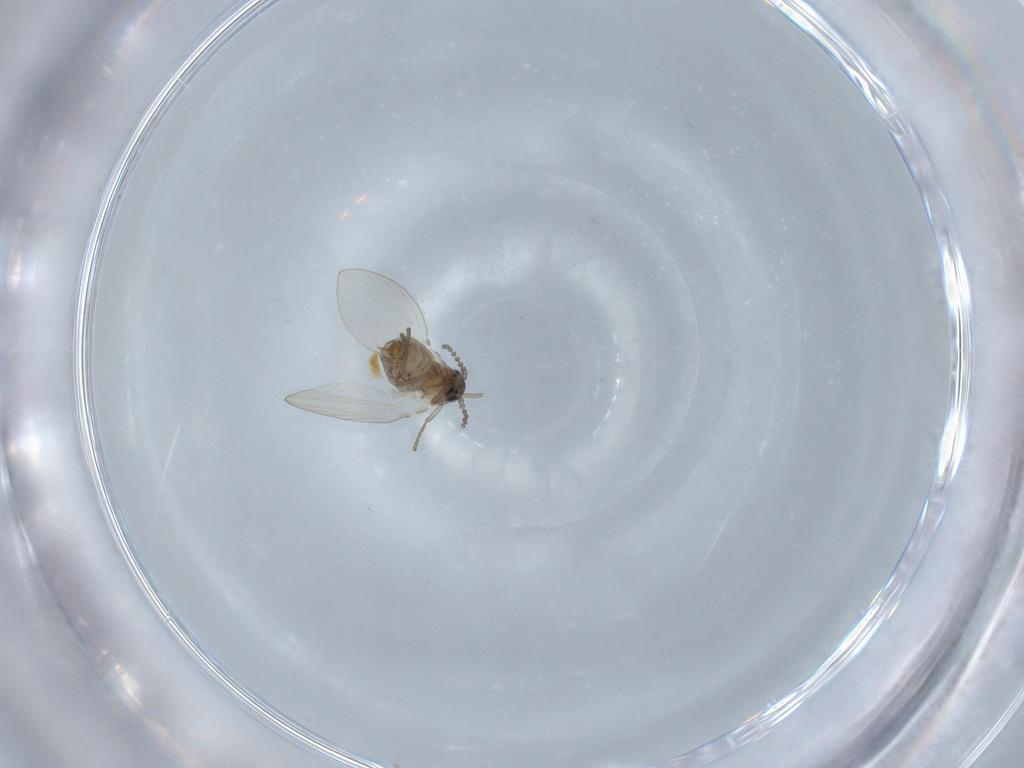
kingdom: Animalia
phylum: Arthropoda
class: Insecta
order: Diptera
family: Psychodidae
